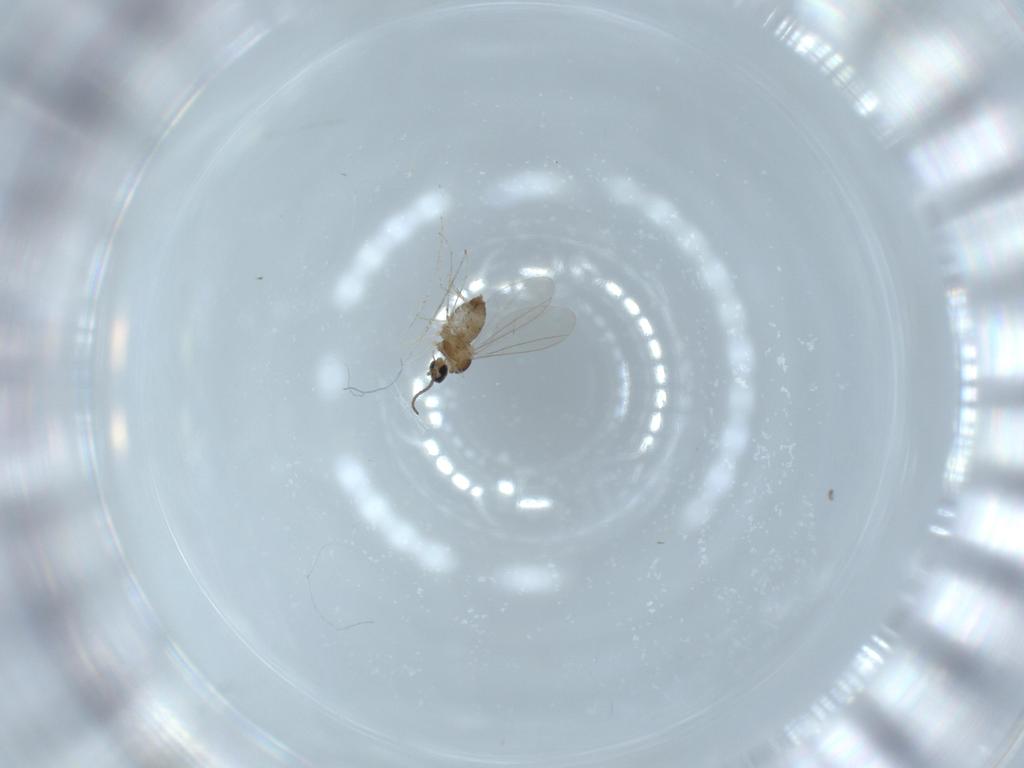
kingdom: Animalia
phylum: Arthropoda
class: Insecta
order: Diptera
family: Cecidomyiidae
